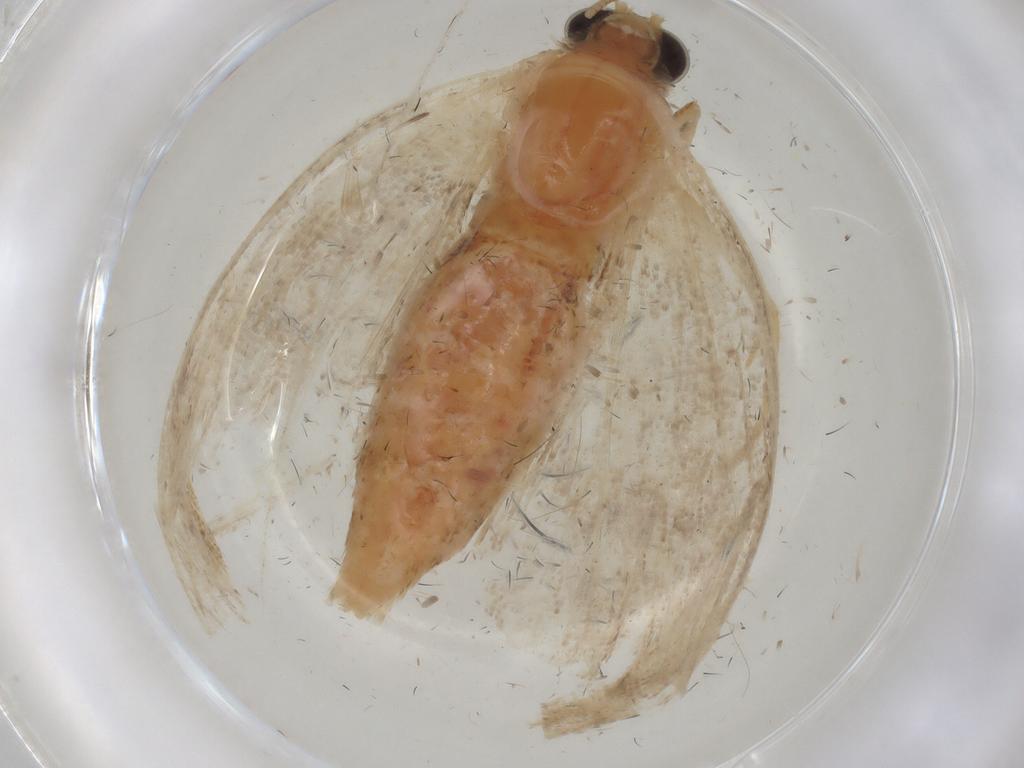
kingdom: Animalia
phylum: Arthropoda
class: Insecta
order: Lepidoptera
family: Geometridae
